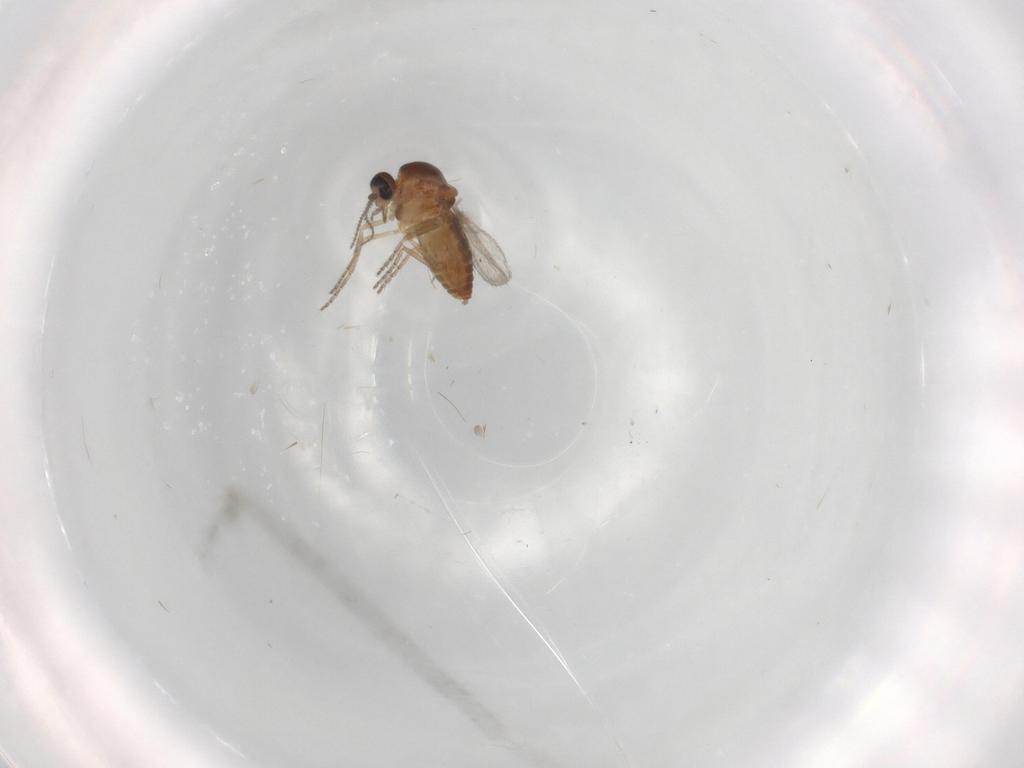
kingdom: Animalia
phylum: Arthropoda
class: Insecta
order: Diptera
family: Ceratopogonidae
